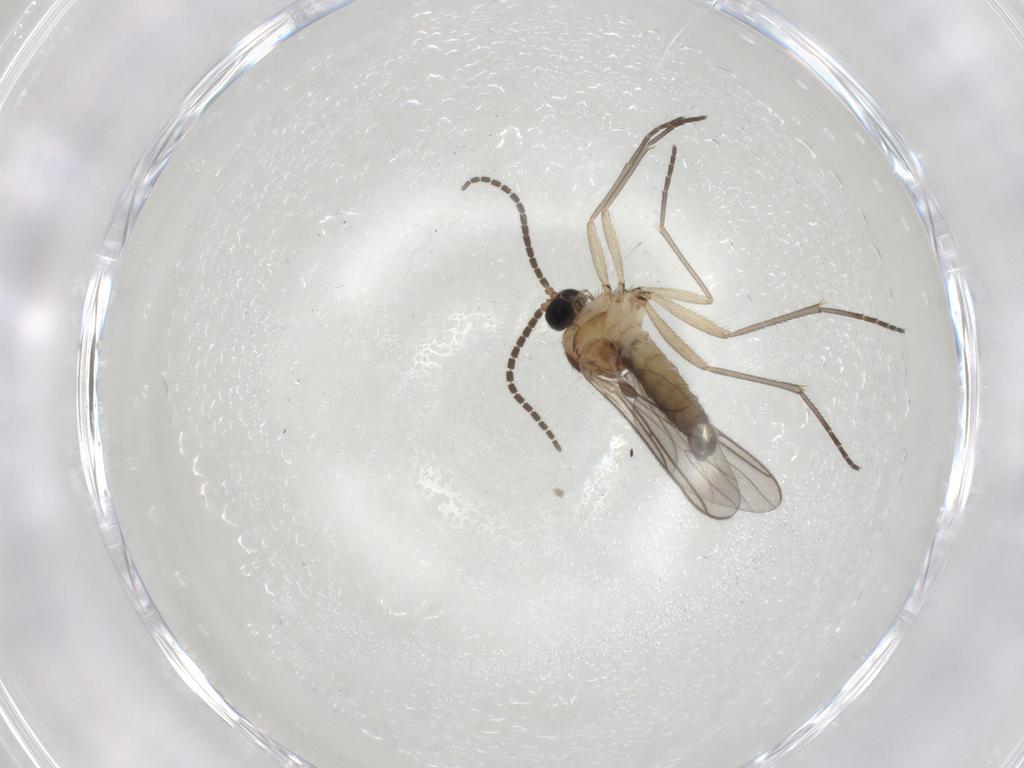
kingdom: Animalia
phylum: Arthropoda
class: Insecta
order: Diptera
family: Sciaridae
